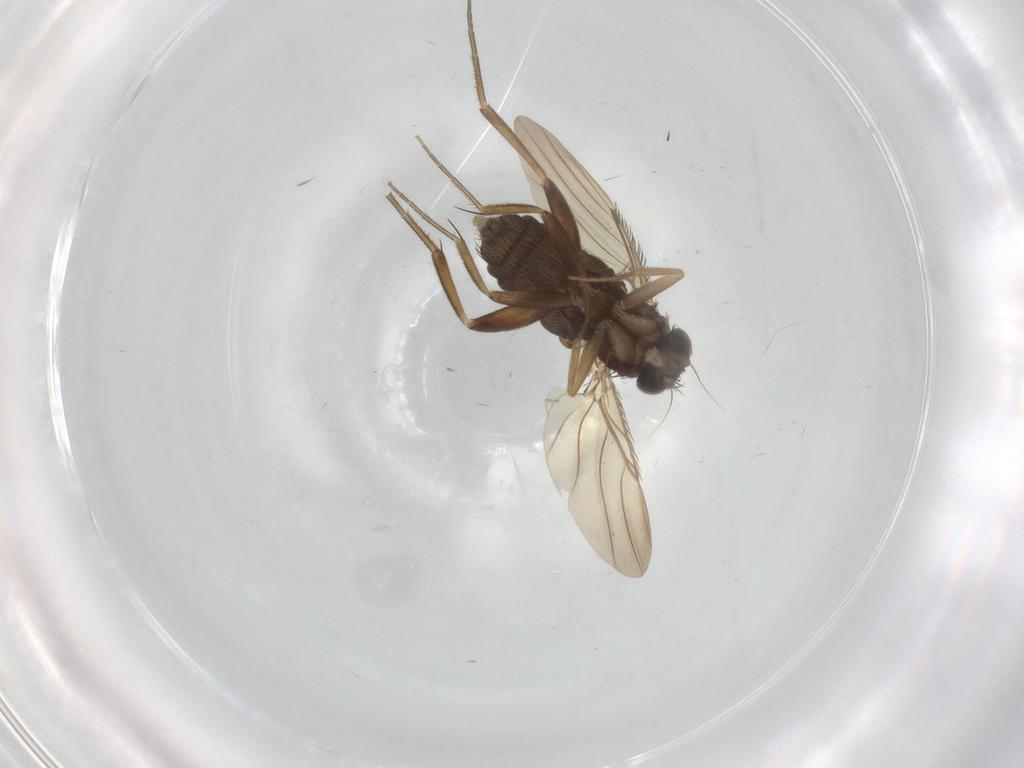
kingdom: Animalia
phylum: Arthropoda
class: Insecta
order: Diptera
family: Phoridae
